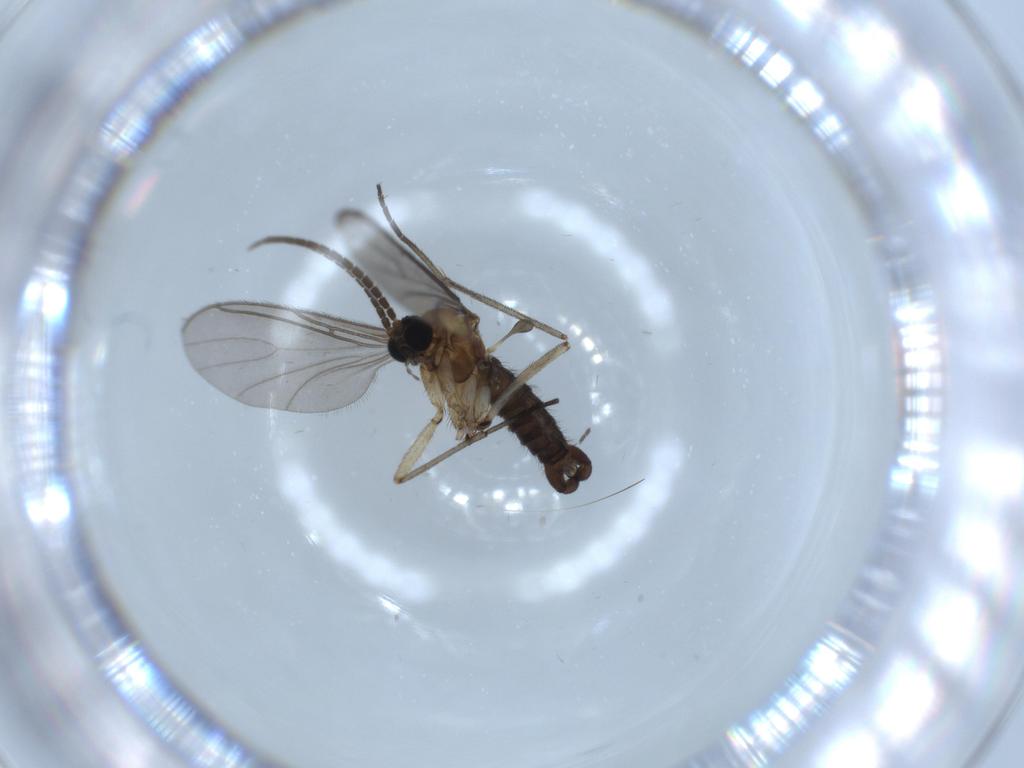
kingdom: Animalia
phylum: Arthropoda
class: Insecta
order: Diptera
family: Sciaridae
